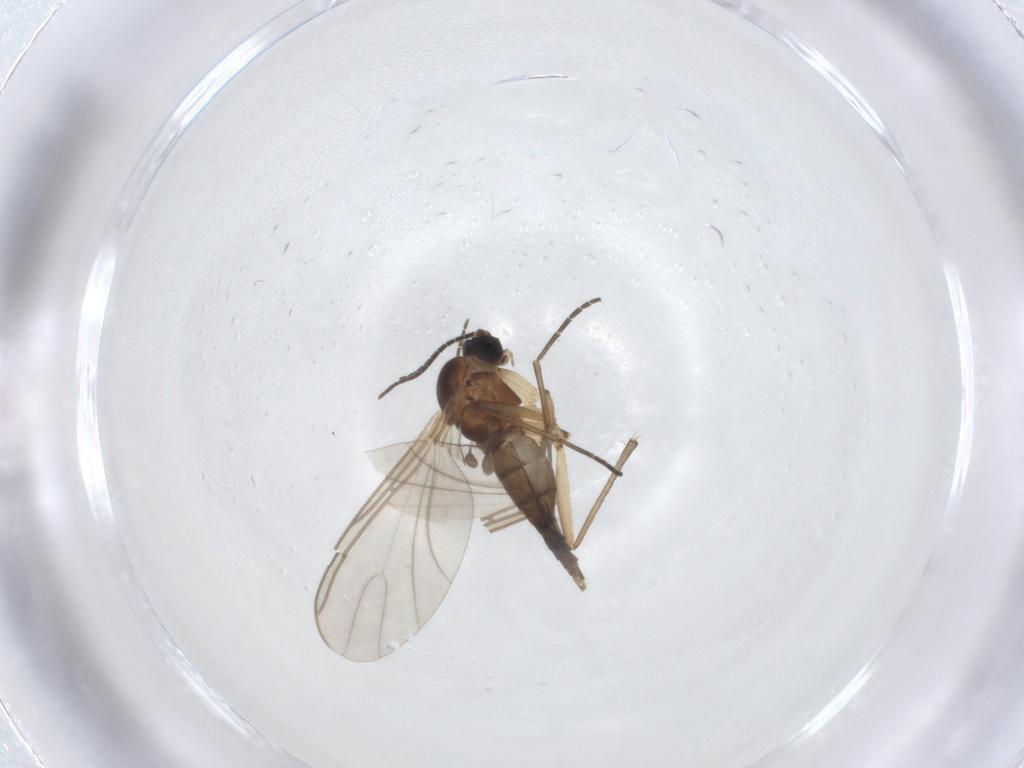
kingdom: Animalia
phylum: Arthropoda
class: Insecta
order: Diptera
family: Sciaridae
